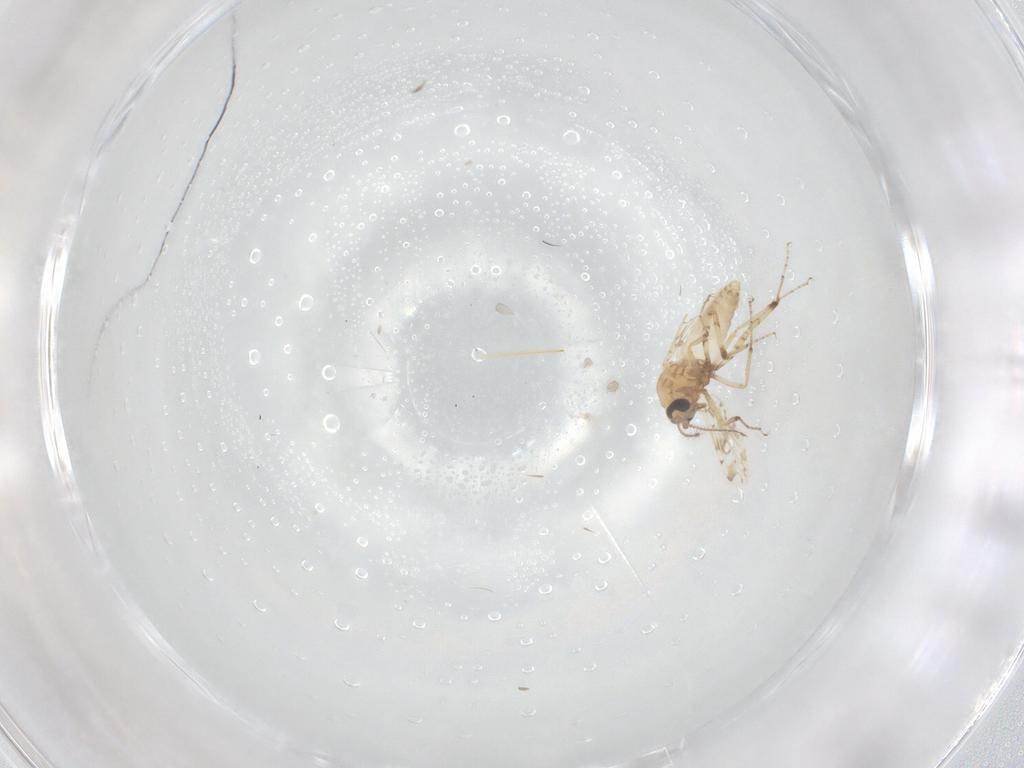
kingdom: Animalia
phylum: Arthropoda
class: Insecta
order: Diptera
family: Ceratopogonidae
